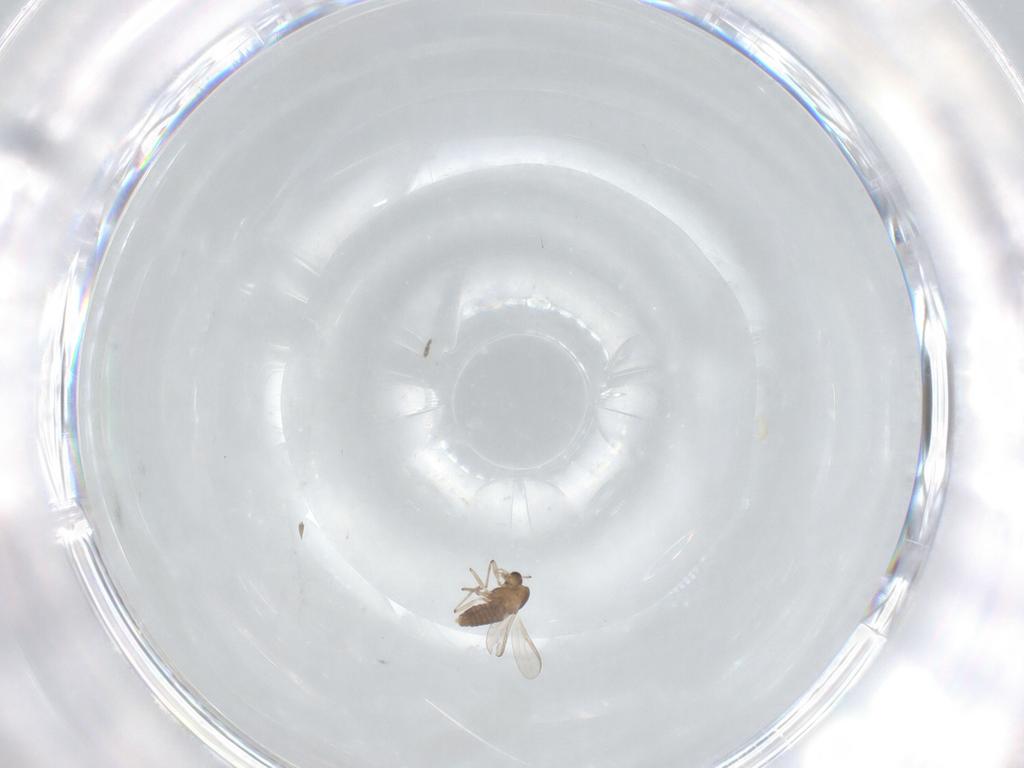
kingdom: Animalia
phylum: Arthropoda
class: Insecta
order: Diptera
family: Chironomidae
